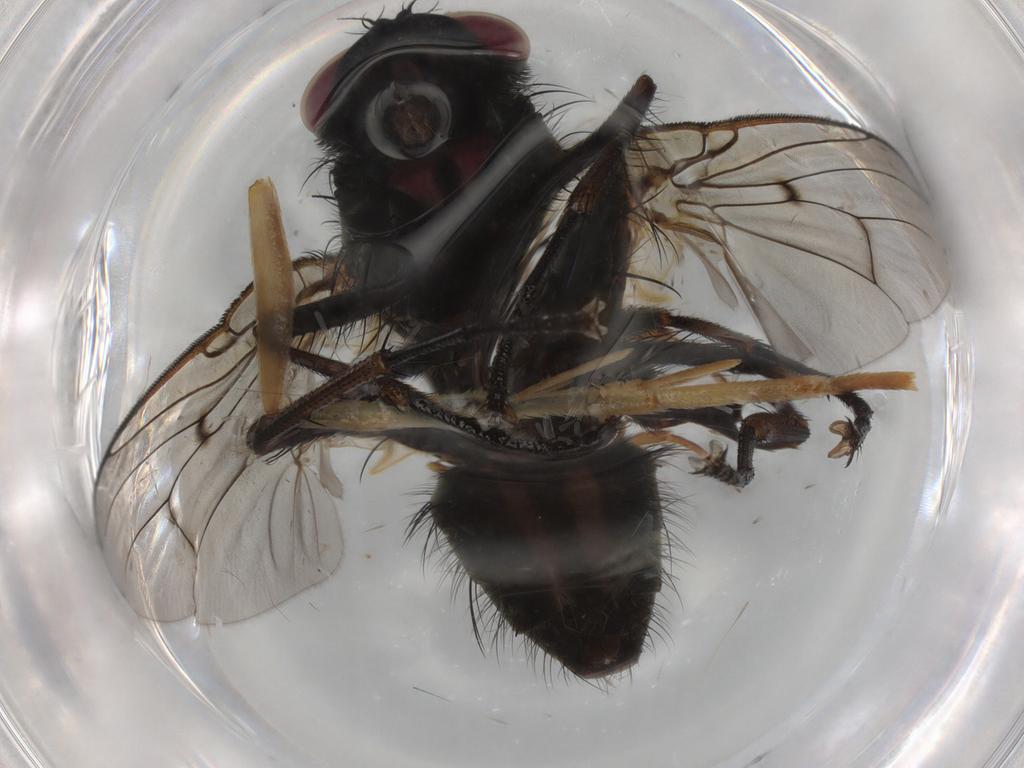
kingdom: Animalia
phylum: Arthropoda
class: Insecta
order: Diptera
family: Muscidae
